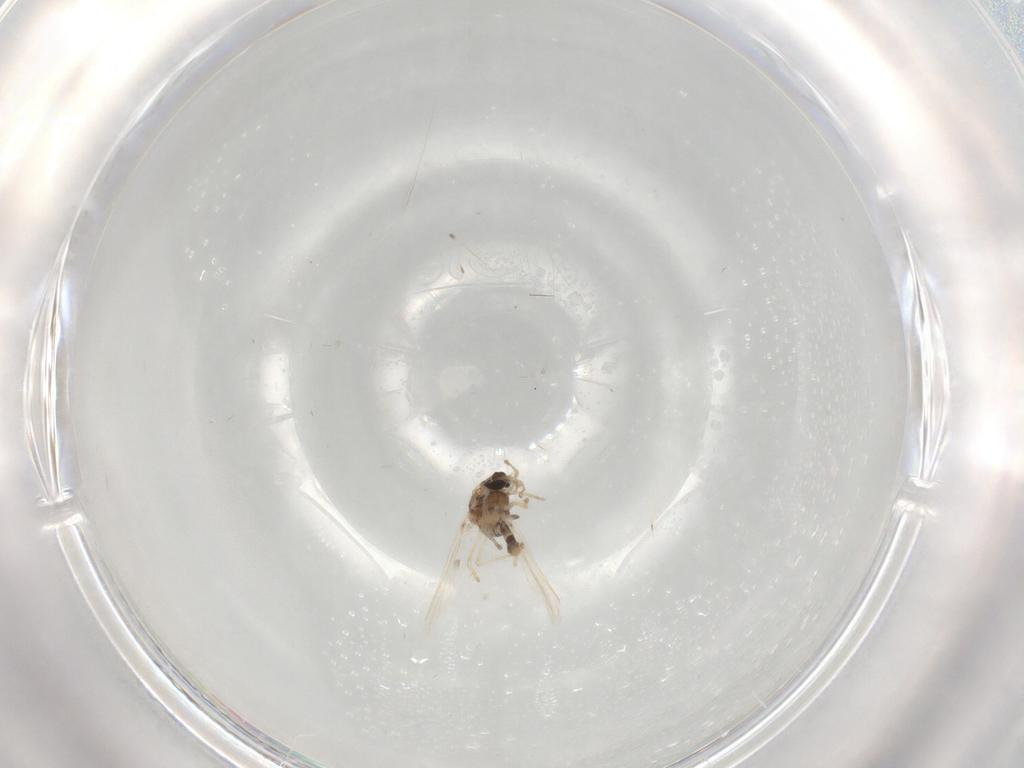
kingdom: Animalia
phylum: Arthropoda
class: Insecta
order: Diptera
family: Chironomidae
